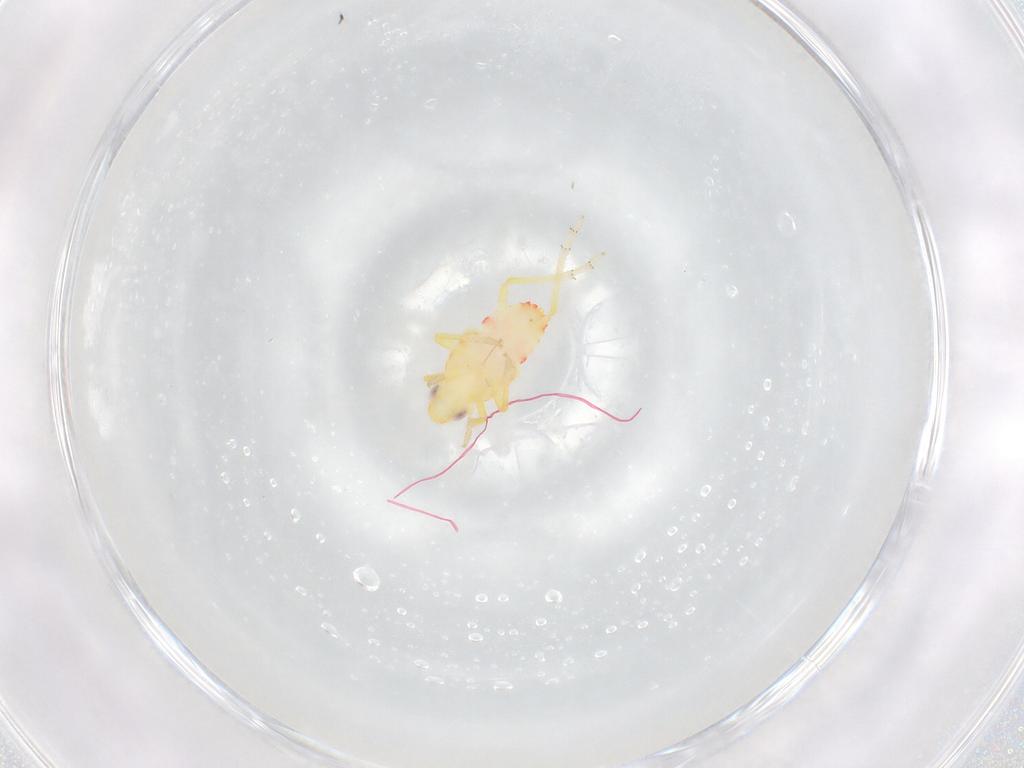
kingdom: Animalia
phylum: Arthropoda
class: Insecta
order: Hemiptera
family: Tropiduchidae
